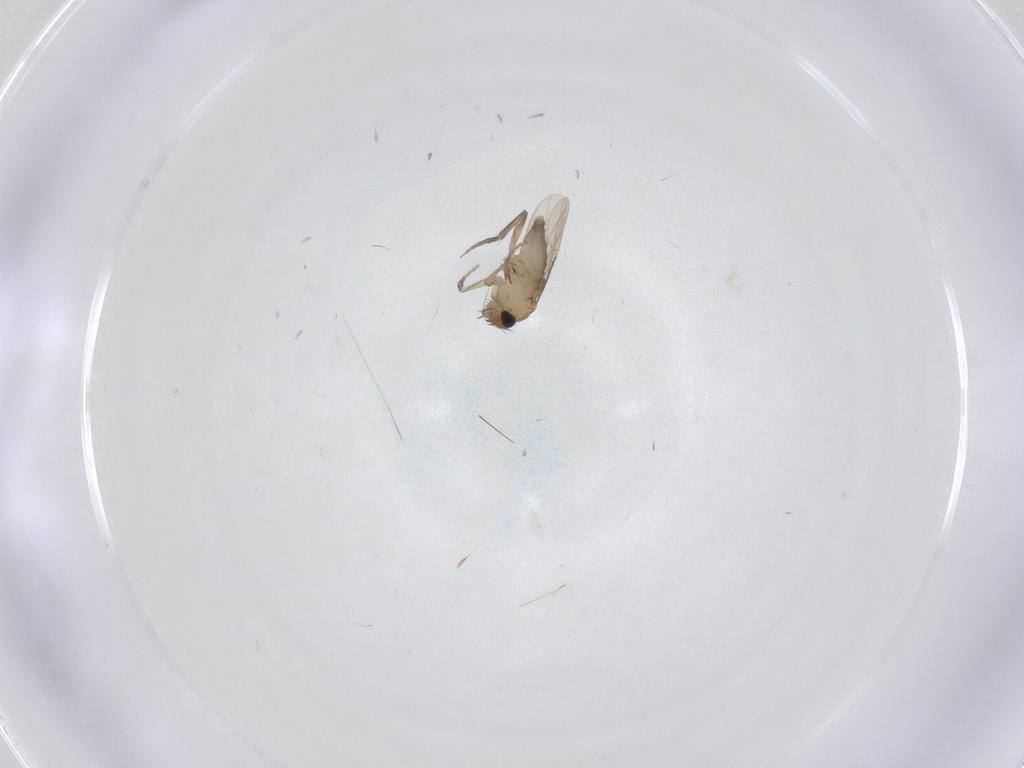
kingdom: Animalia
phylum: Arthropoda
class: Insecta
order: Diptera
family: Phoridae
